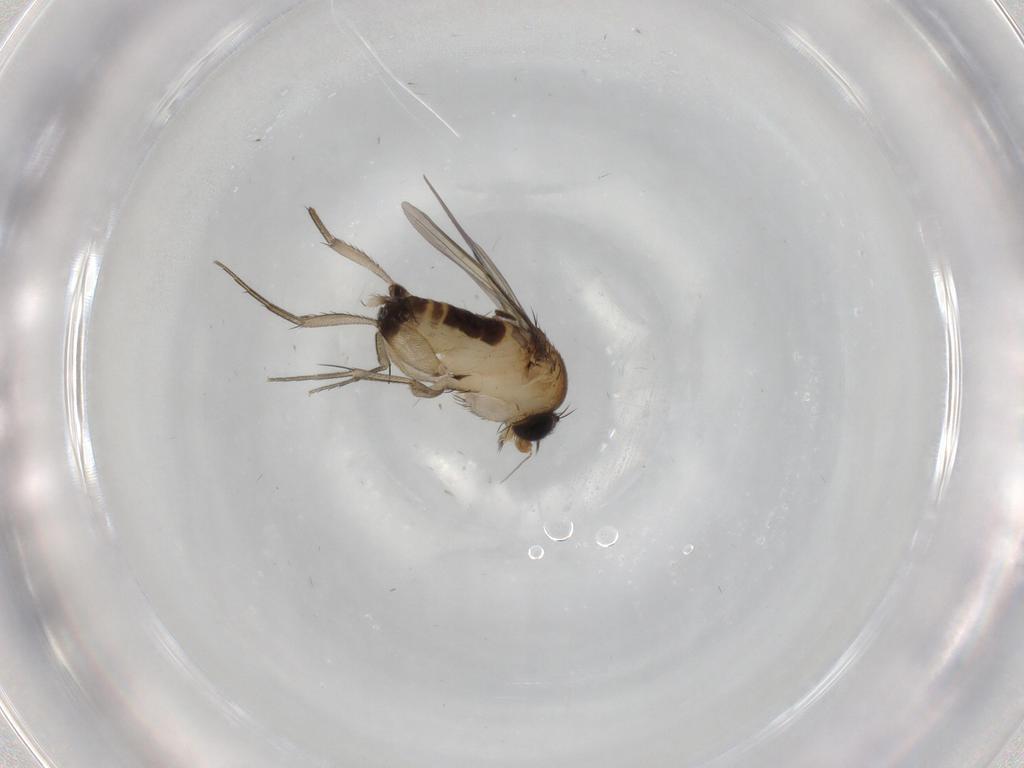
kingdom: Animalia
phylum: Arthropoda
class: Insecta
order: Diptera
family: Phoridae
